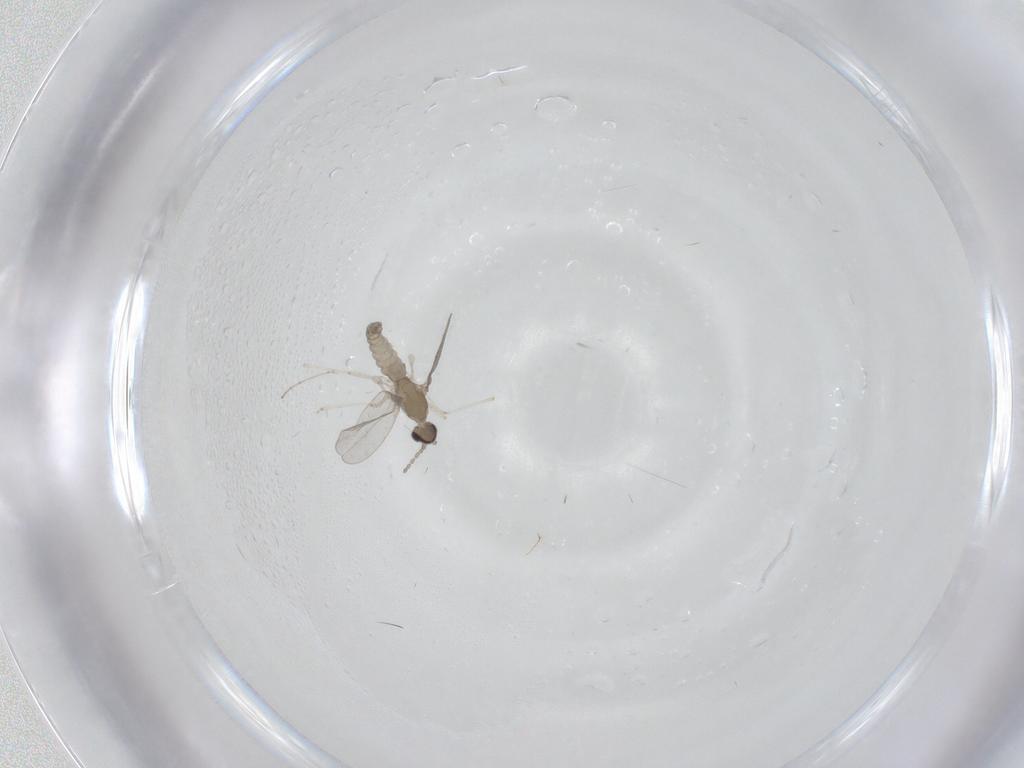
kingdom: Animalia
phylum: Arthropoda
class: Insecta
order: Diptera
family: Cecidomyiidae
